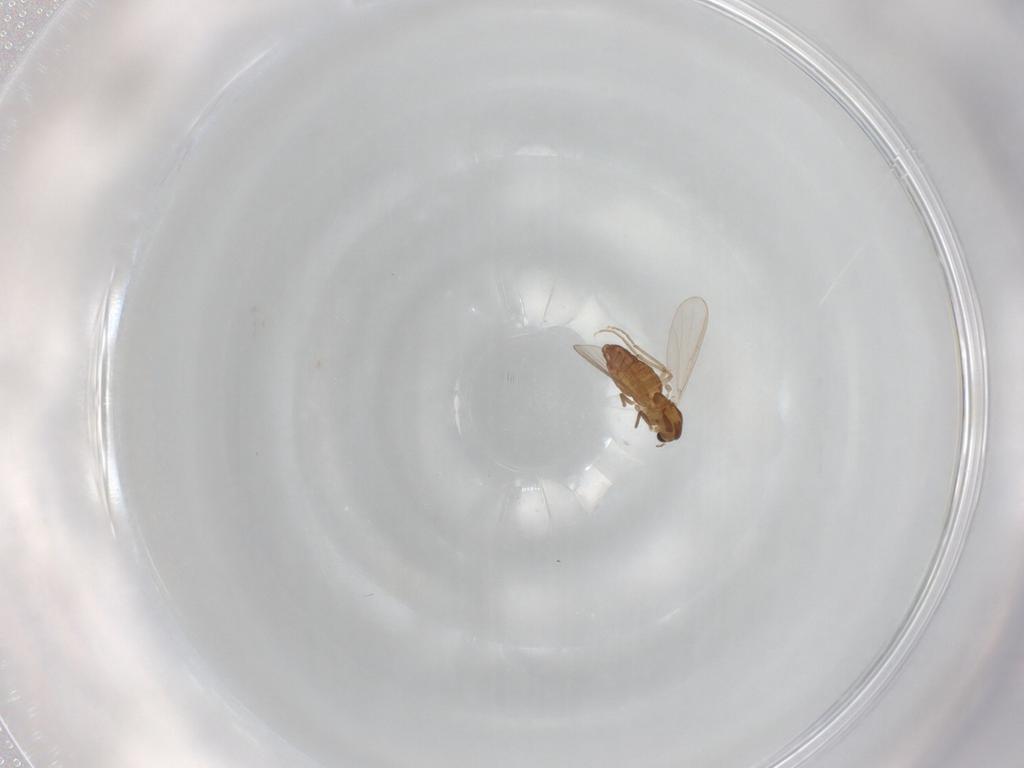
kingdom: Animalia
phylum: Arthropoda
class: Insecta
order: Diptera
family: Chironomidae
